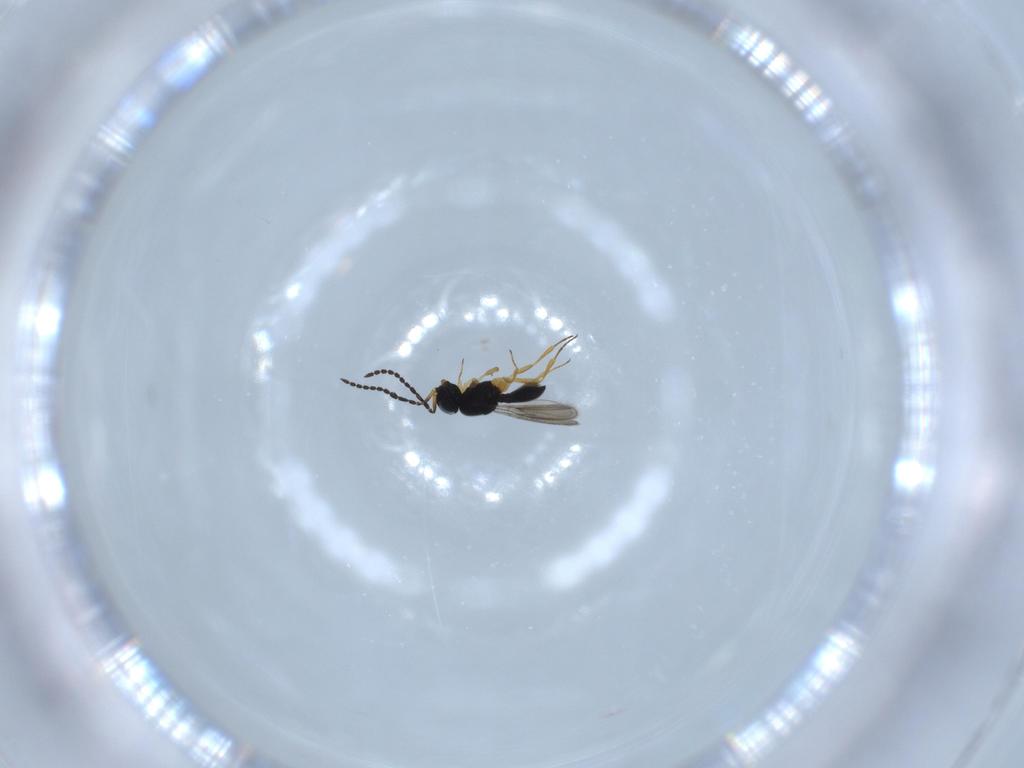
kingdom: Animalia
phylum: Arthropoda
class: Insecta
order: Hymenoptera
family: Scelionidae
